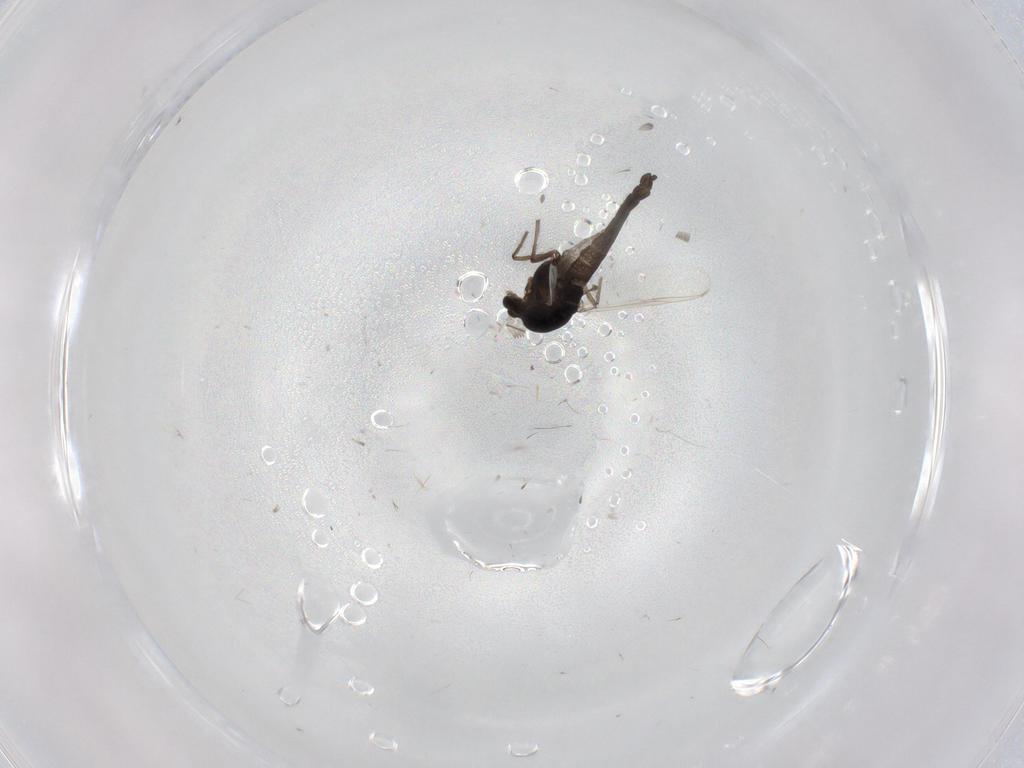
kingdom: Animalia
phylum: Arthropoda
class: Insecta
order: Diptera
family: Chironomidae
